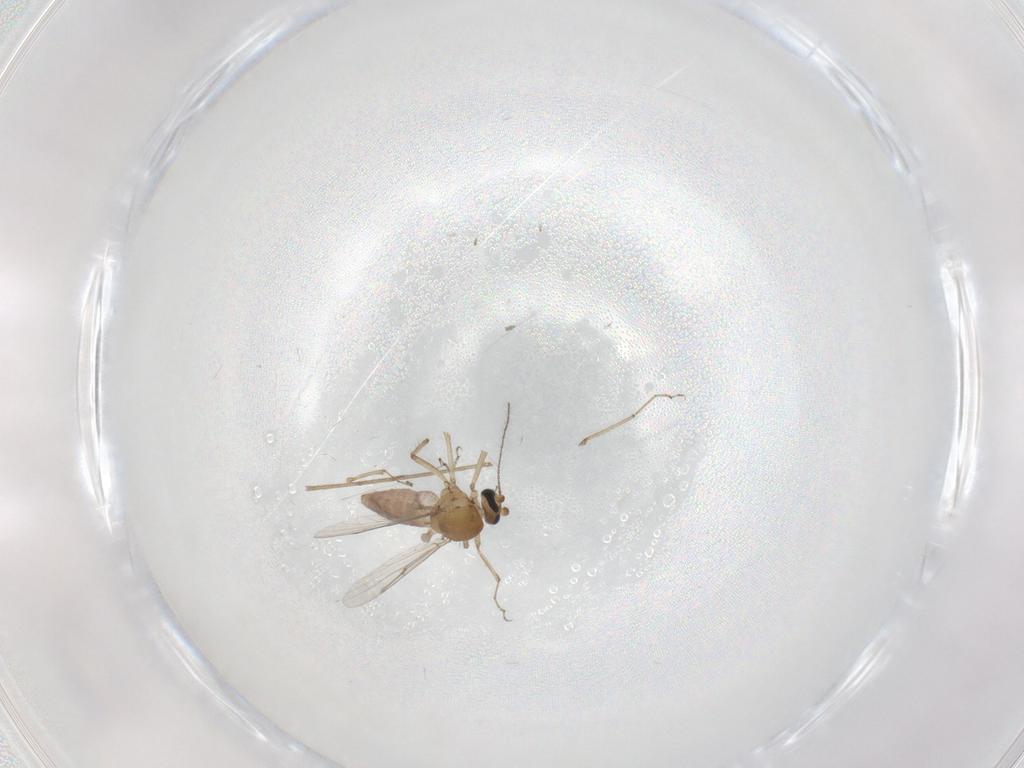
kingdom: Animalia
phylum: Arthropoda
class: Insecta
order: Diptera
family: Ceratopogonidae
